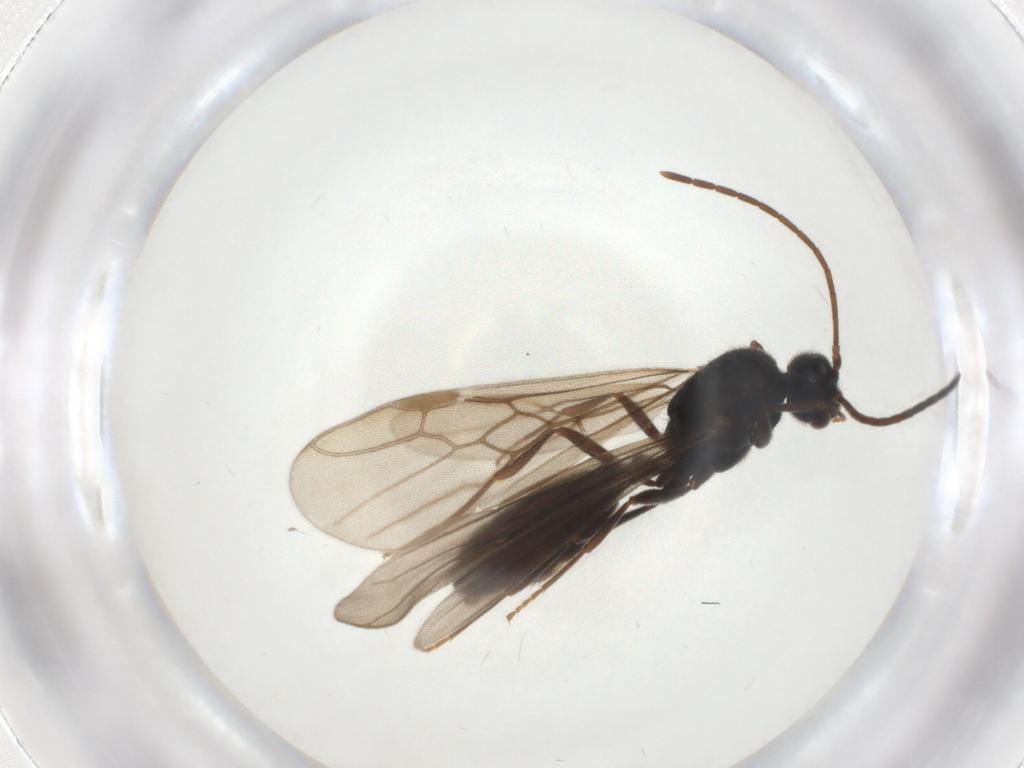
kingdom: Animalia
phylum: Arthropoda
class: Insecta
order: Hymenoptera
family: Formicidae
